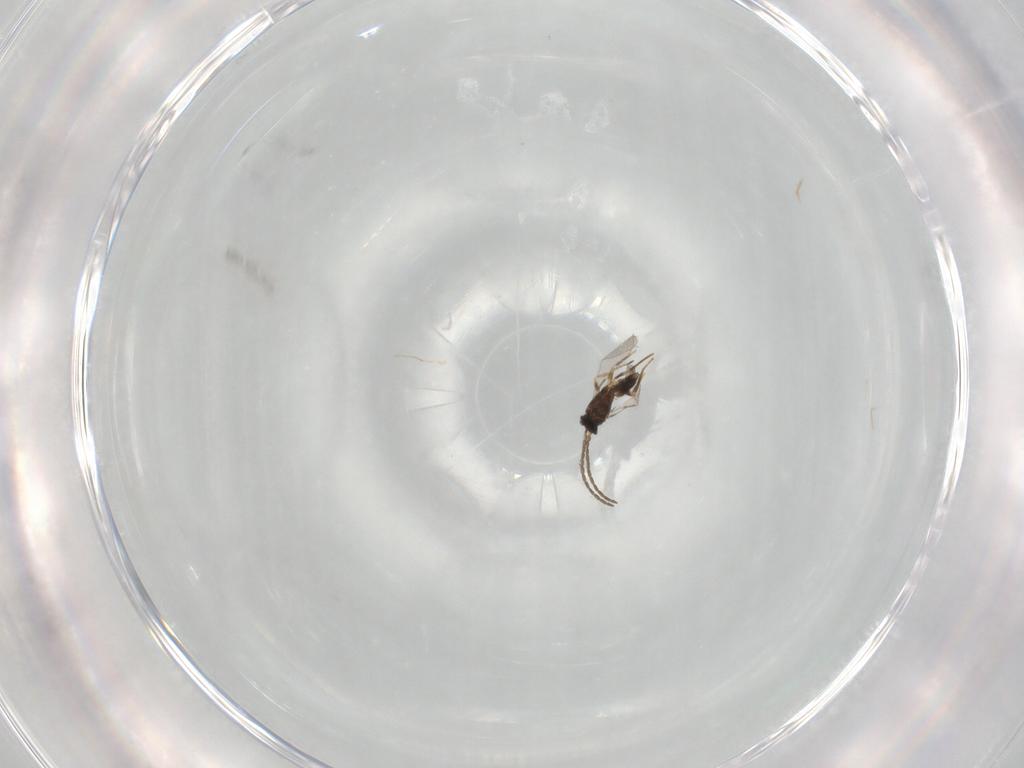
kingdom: Animalia
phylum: Arthropoda
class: Insecta
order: Hymenoptera
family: Mymaridae
